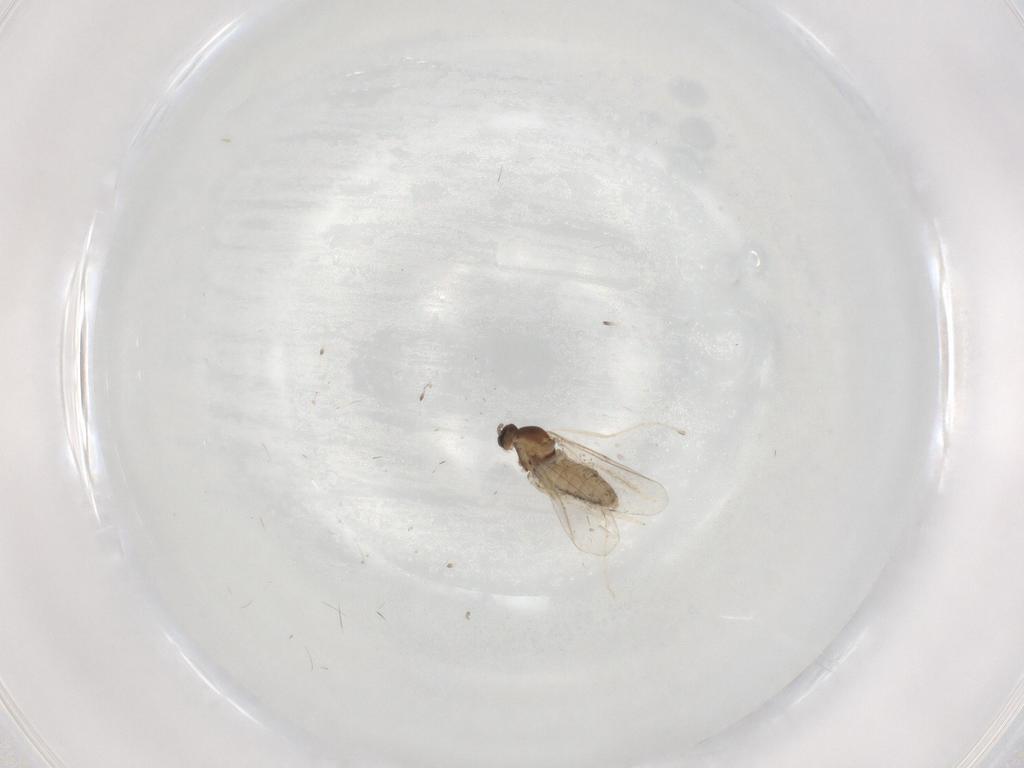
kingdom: Animalia
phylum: Arthropoda
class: Insecta
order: Diptera
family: Cecidomyiidae
